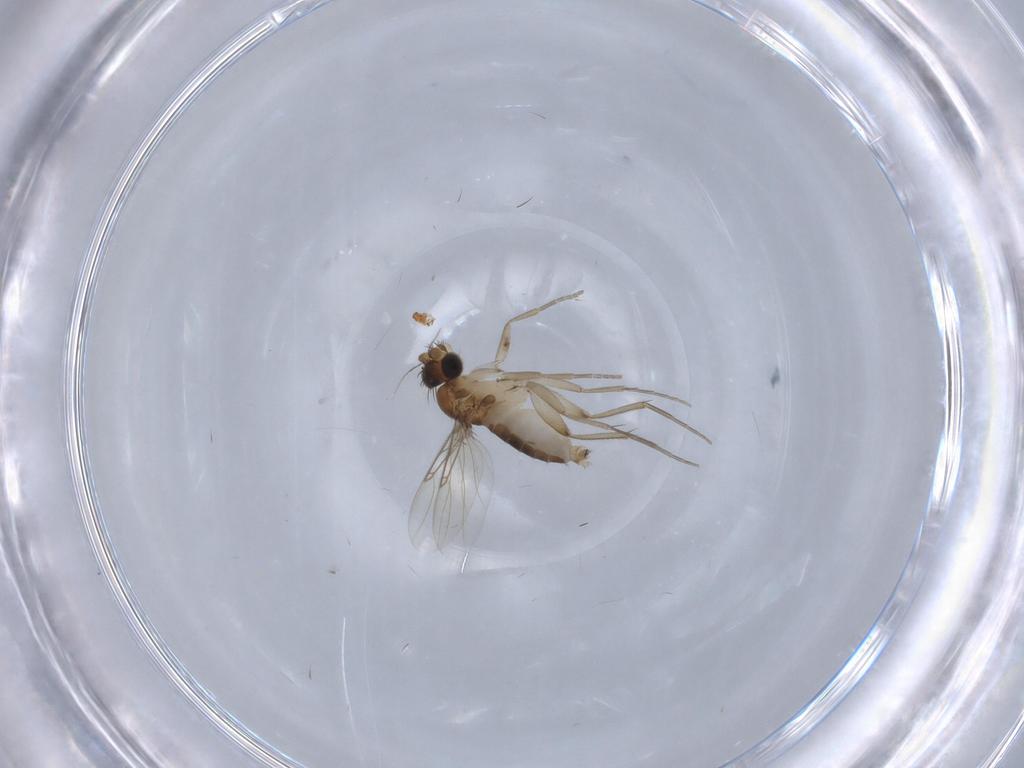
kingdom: Animalia
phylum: Arthropoda
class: Insecta
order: Diptera
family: Phoridae
